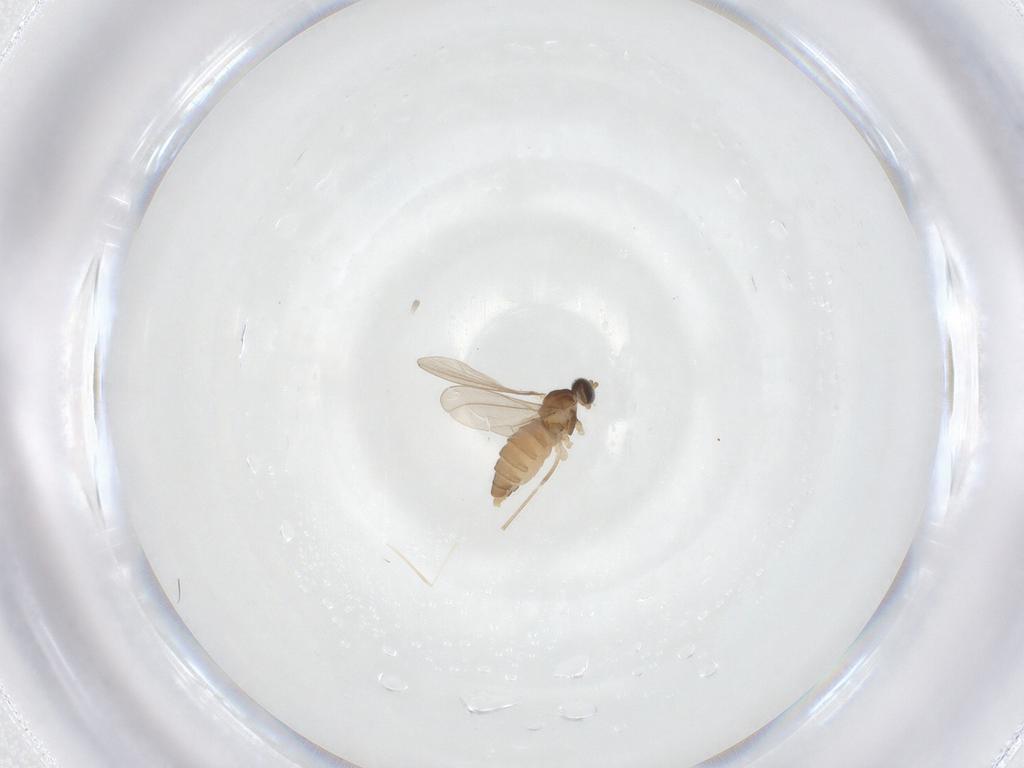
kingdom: Animalia
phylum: Arthropoda
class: Insecta
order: Diptera
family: Cecidomyiidae
